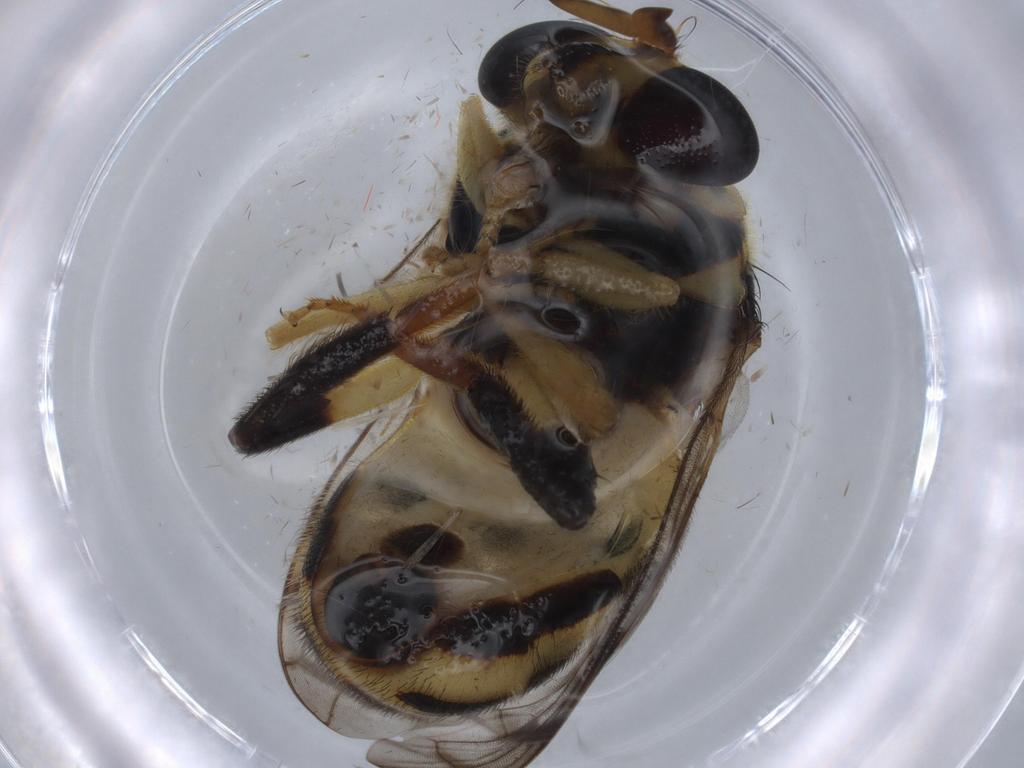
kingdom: Animalia
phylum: Arthropoda
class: Insecta
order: Diptera
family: Syrphidae
